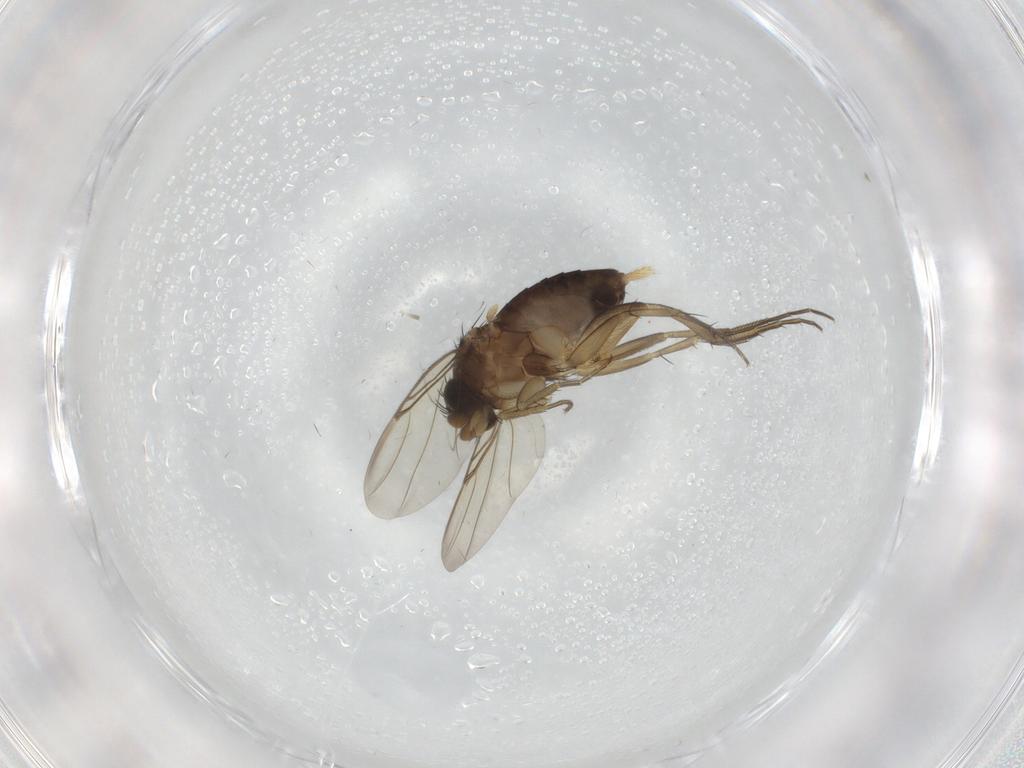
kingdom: Animalia
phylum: Arthropoda
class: Insecta
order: Diptera
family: Phoridae
